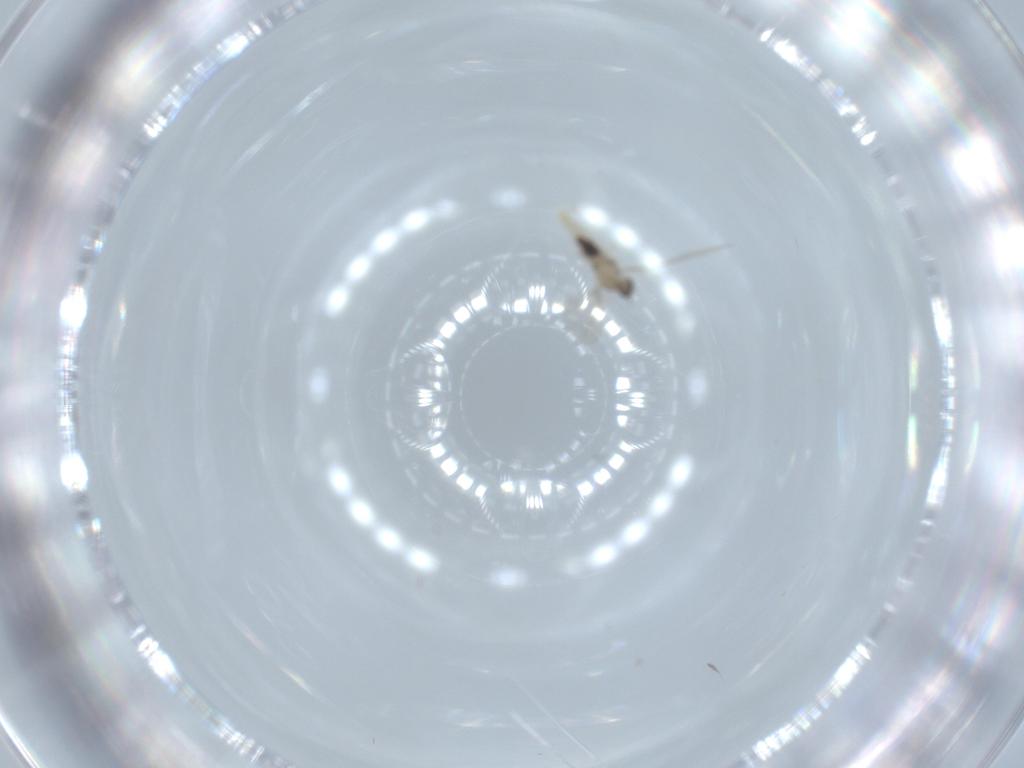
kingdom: Animalia
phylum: Arthropoda
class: Insecta
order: Diptera
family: Cecidomyiidae
